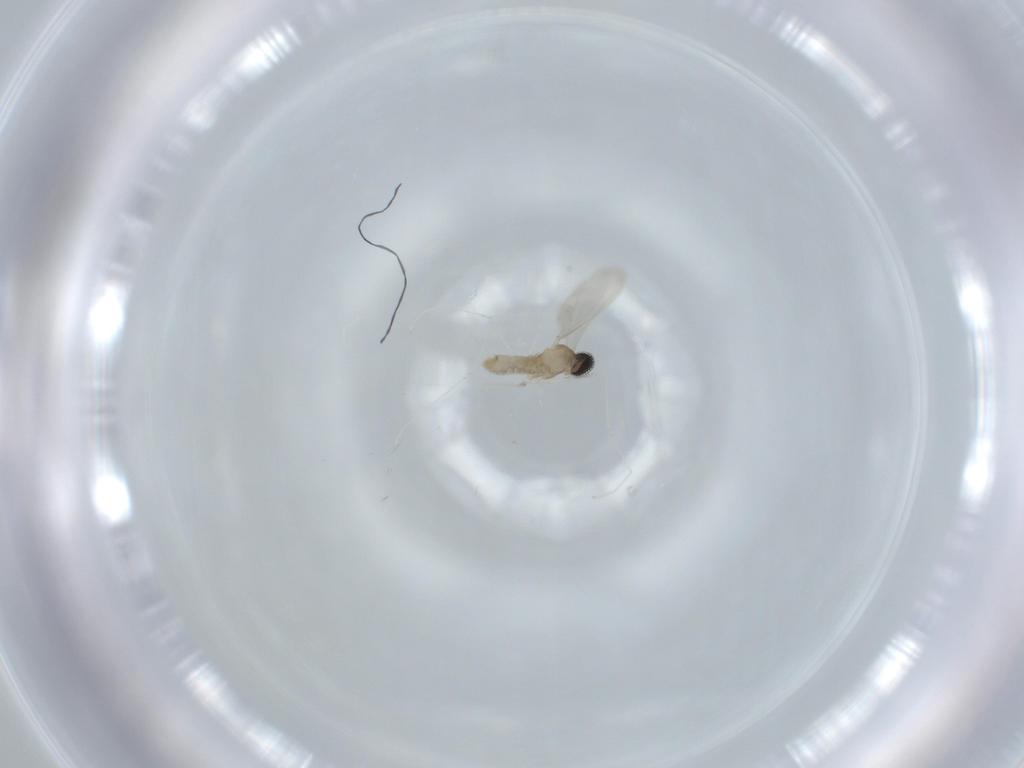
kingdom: Animalia
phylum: Arthropoda
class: Insecta
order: Diptera
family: Cecidomyiidae
